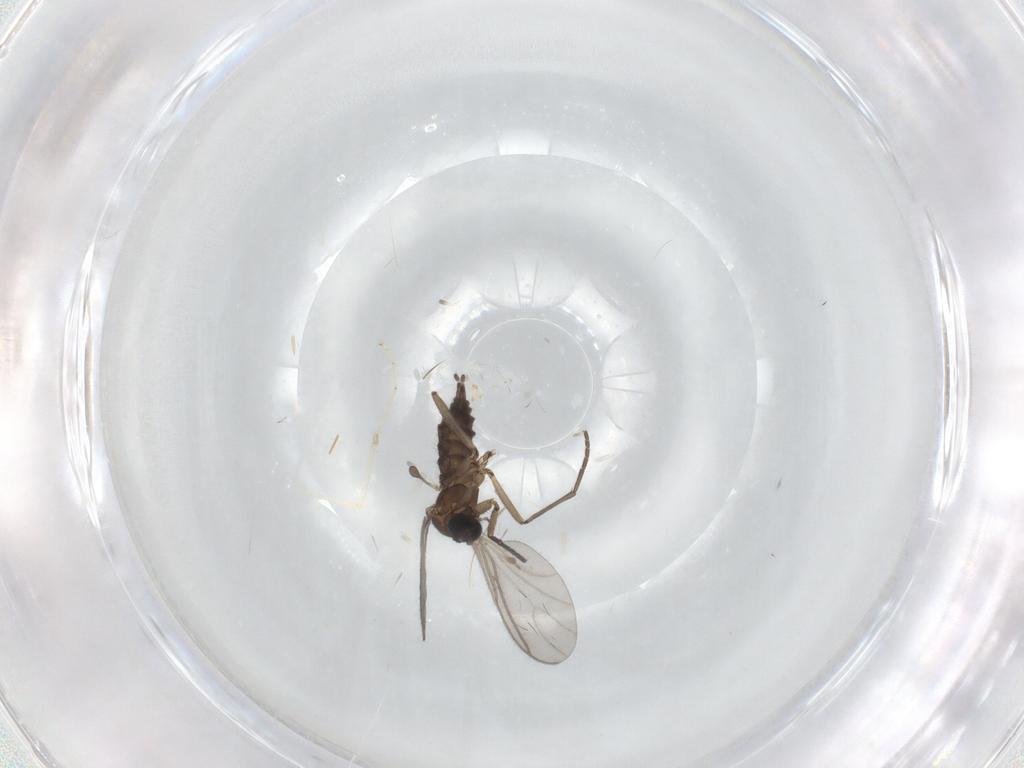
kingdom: Animalia
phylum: Arthropoda
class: Insecta
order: Diptera
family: Cecidomyiidae
